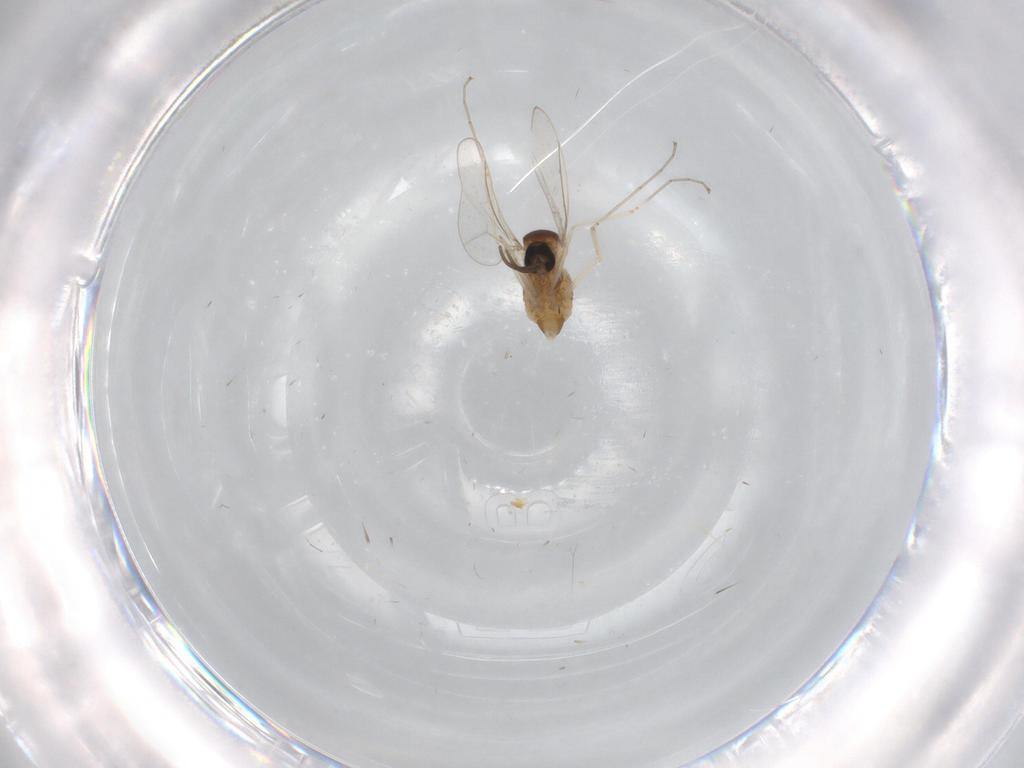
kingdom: Animalia
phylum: Arthropoda
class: Insecta
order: Diptera
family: Cecidomyiidae
